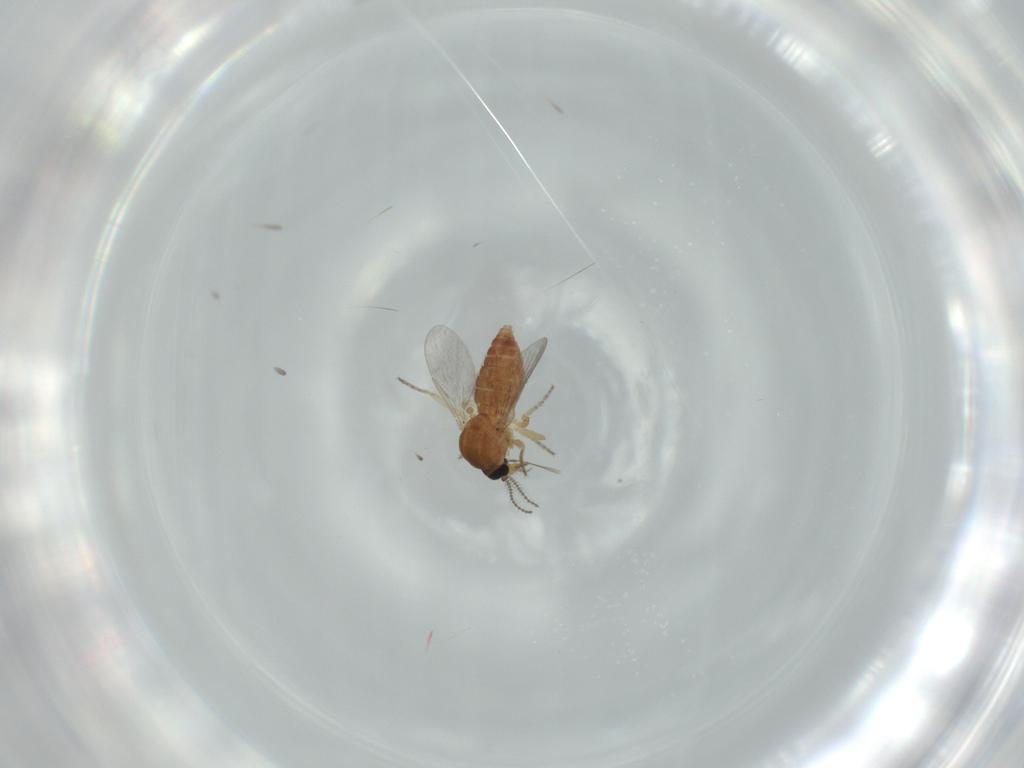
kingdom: Animalia
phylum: Arthropoda
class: Insecta
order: Diptera
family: Ceratopogonidae
